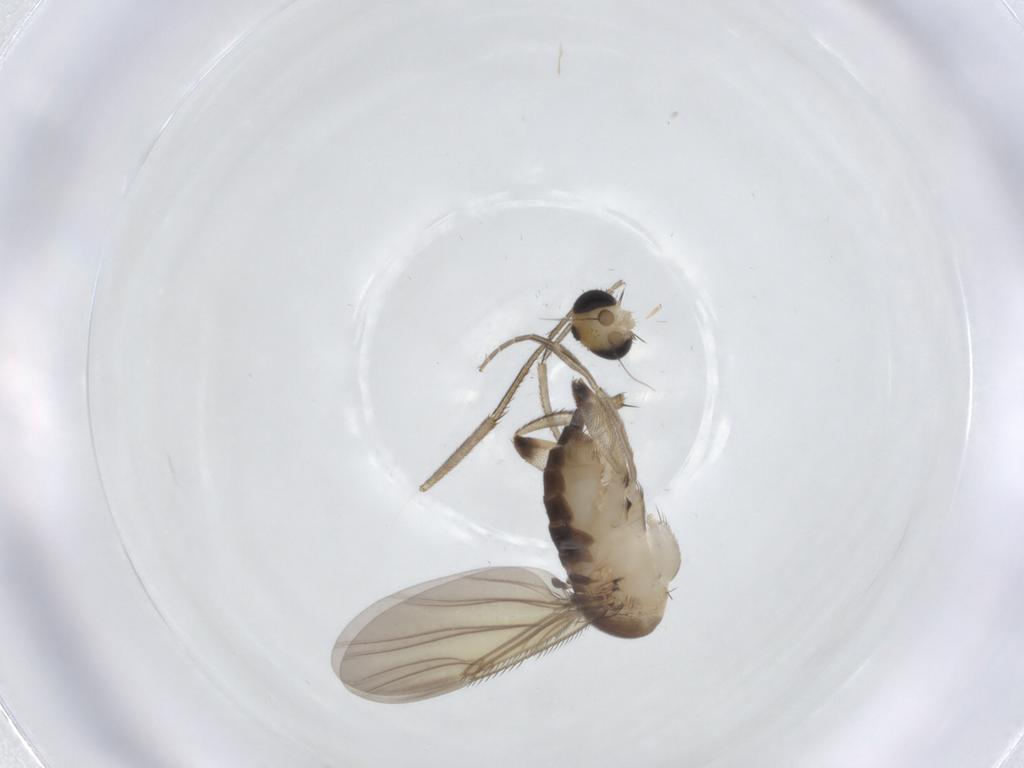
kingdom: Animalia
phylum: Arthropoda
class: Insecta
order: Diptera
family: Phoridae
